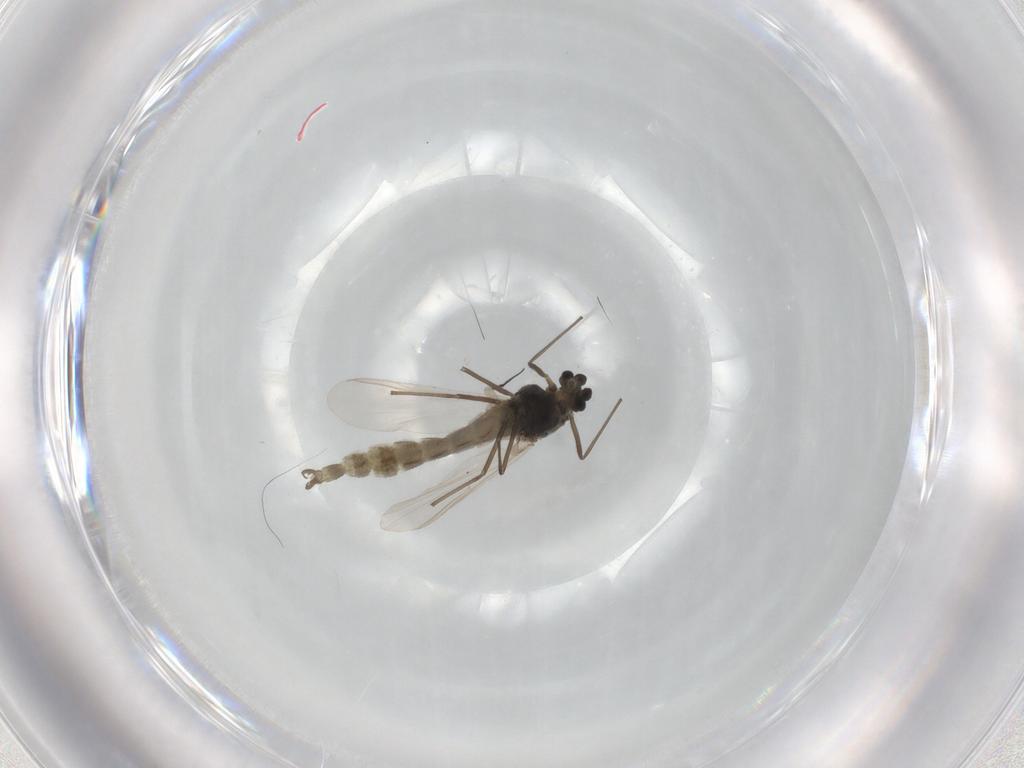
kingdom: Animalia
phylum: Arthropoda
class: Insecta
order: Diptera
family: Chironomidae
